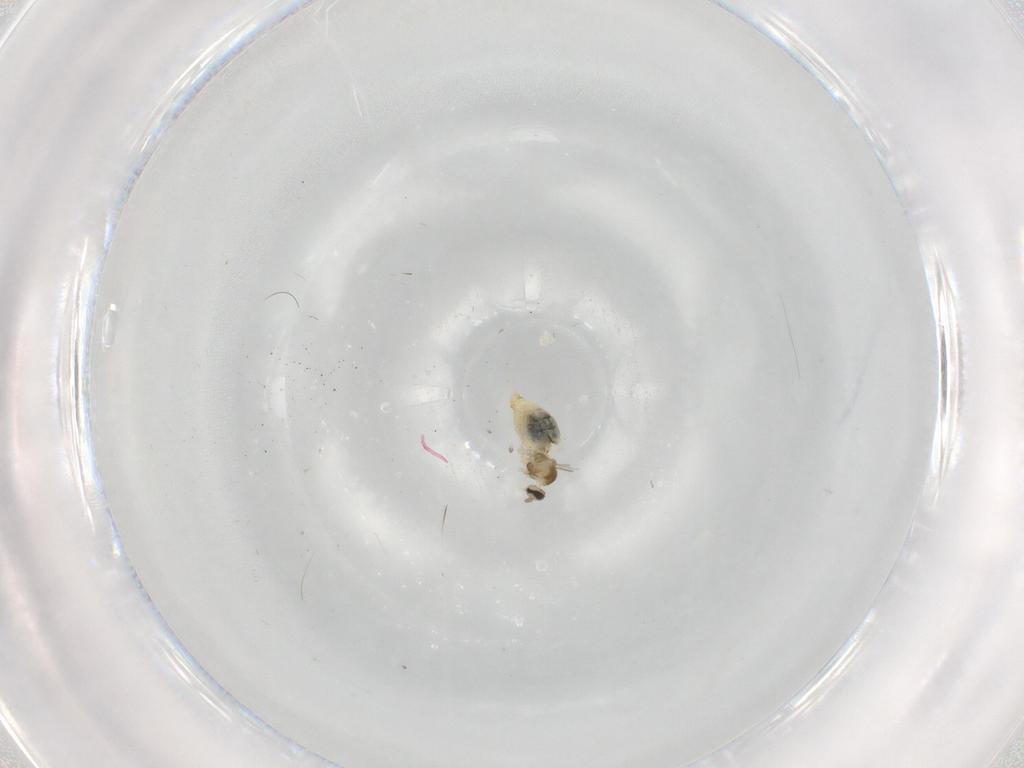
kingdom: Animalia
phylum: Arthropoda
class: Insecta
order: Diptera
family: Cecidomyiidae
